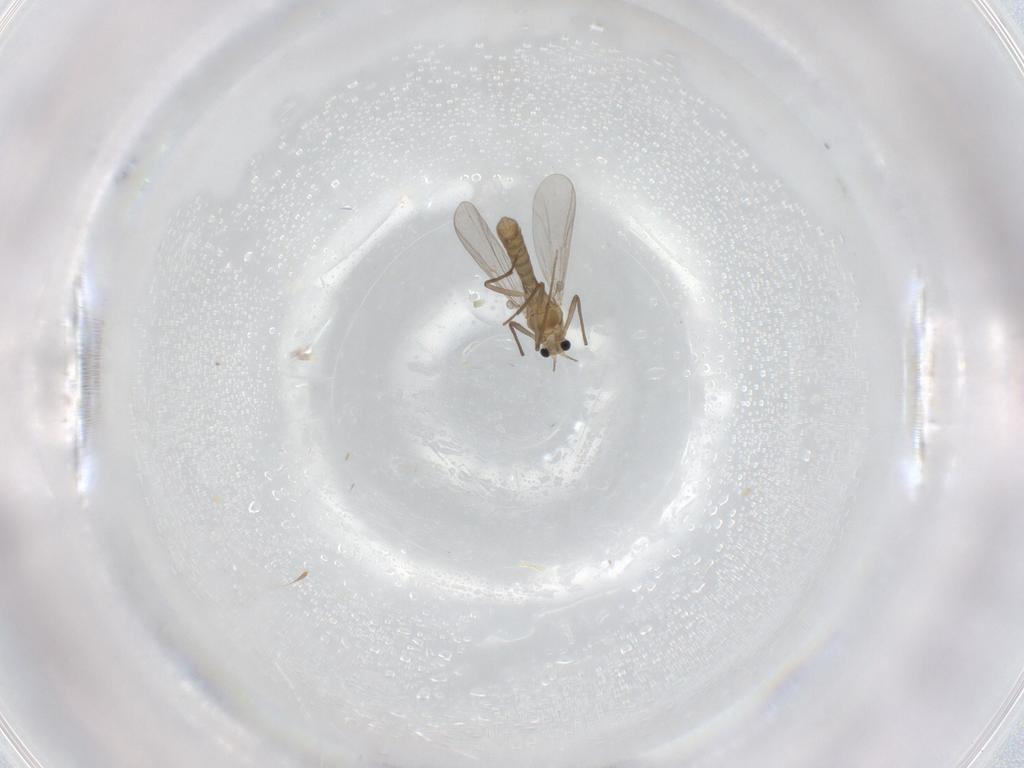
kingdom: Animalia
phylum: Arthropoda
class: Insecta
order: Diptera
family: Chironomidae
